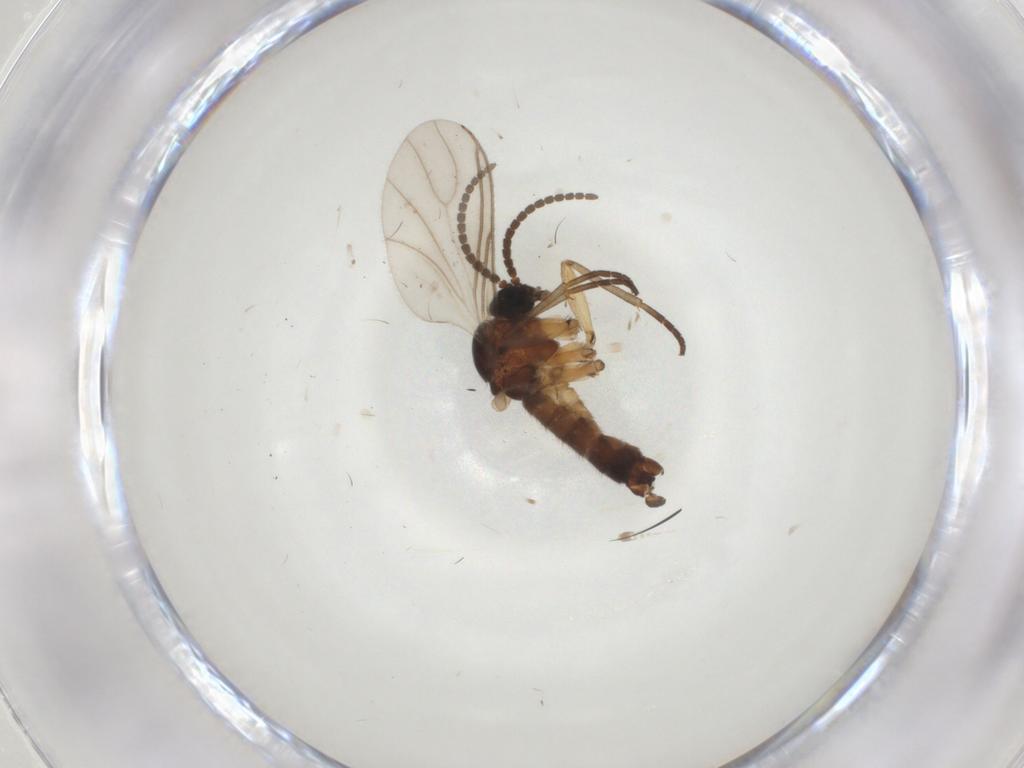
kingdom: Animalia
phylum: Arthropoda
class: Insecta
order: Diptera
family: Sciaridae
